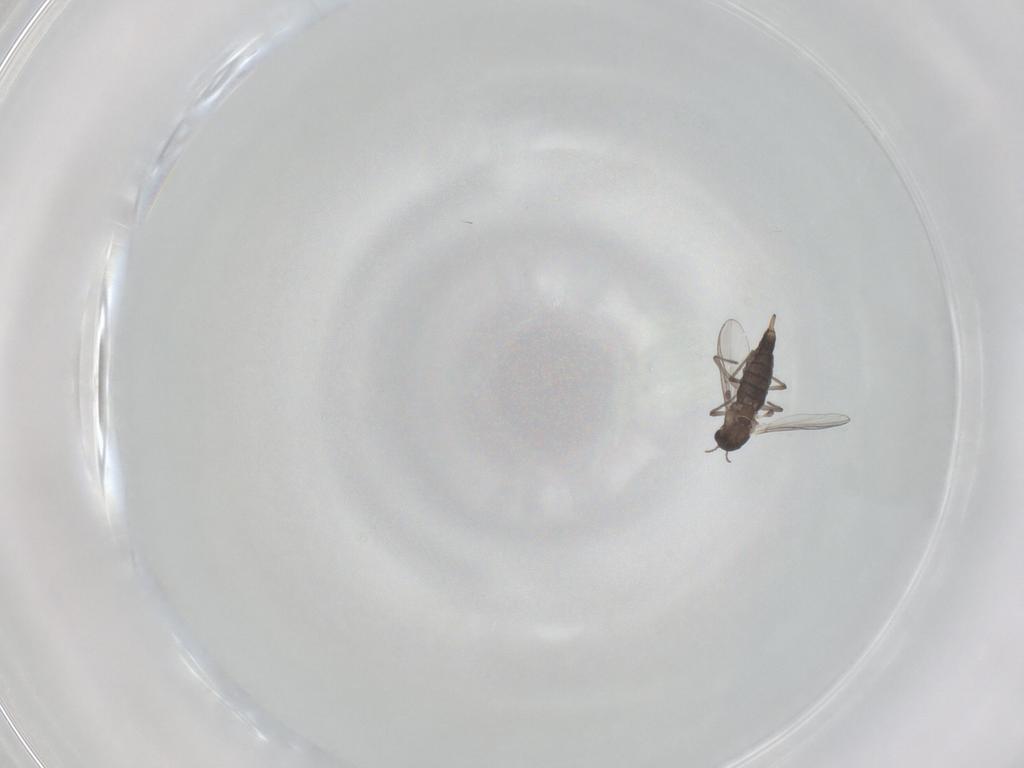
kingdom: Animalia
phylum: Arthropoda
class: Insecta
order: Diptera
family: Chironomidae
